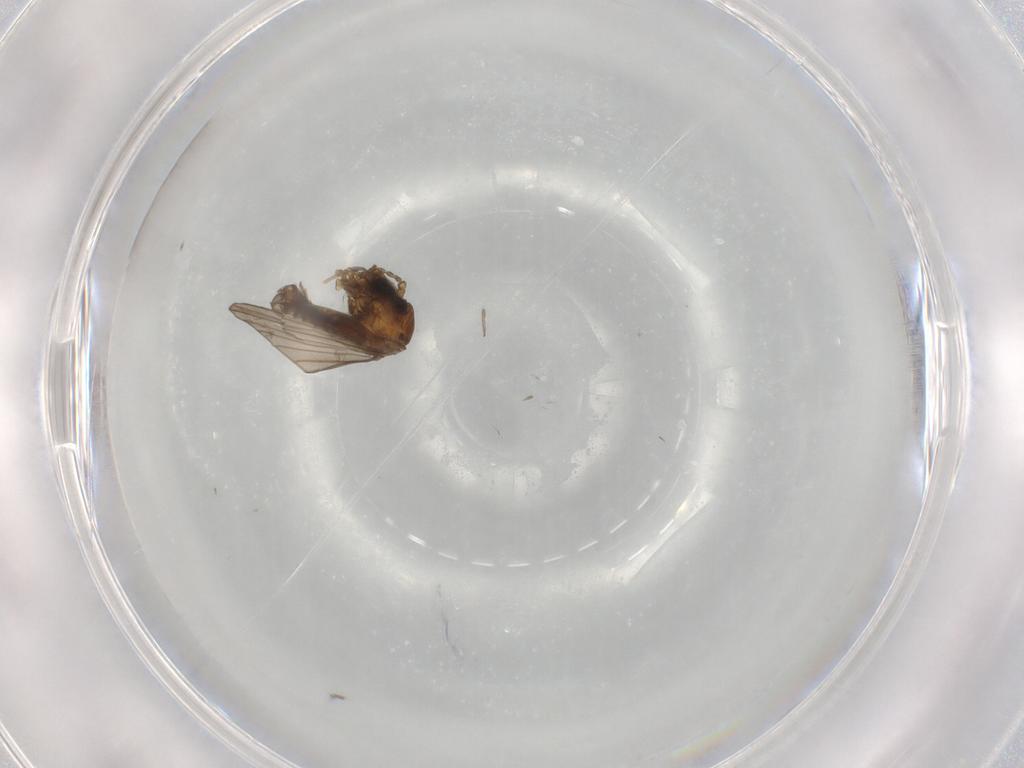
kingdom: Animalia
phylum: Arthropoda
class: Insecta
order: Diptera
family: Psychodidae
